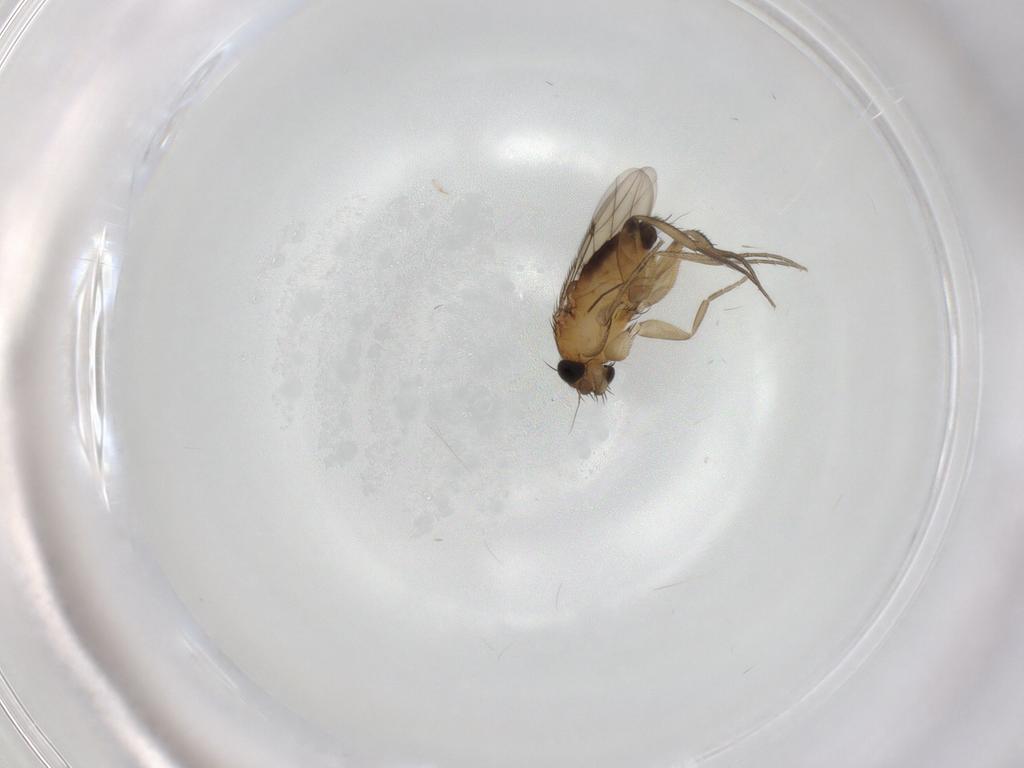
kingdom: Animalia
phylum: Arthropoda
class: Insecta
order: Diptera
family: Phoridae
